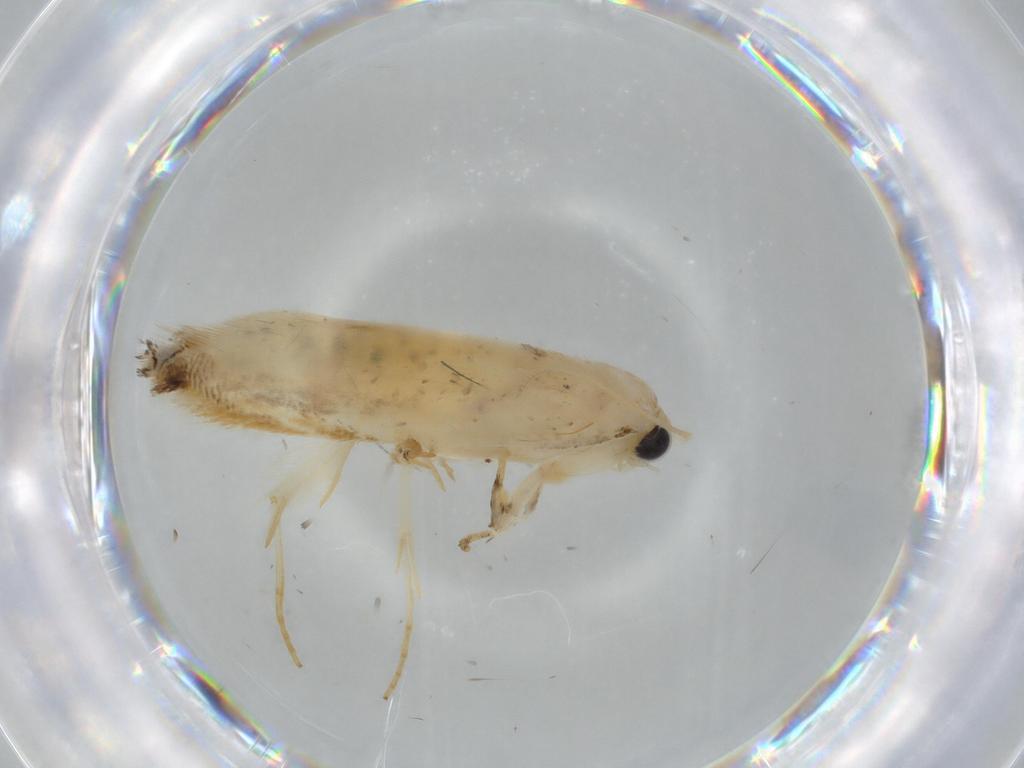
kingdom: Animalia
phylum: Arthropoda
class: Insecta
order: Lepidoptera
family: Tineidae
